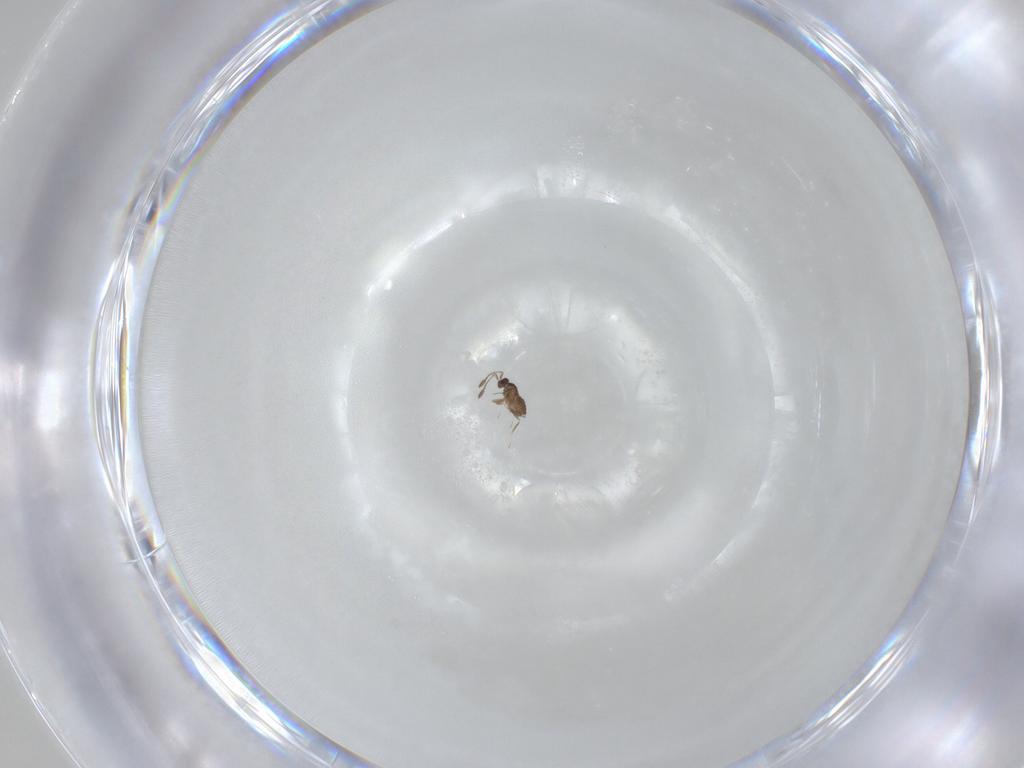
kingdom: Animalia
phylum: Arthropoda
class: Insecta
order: Hymenoptera
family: Mymaridae
